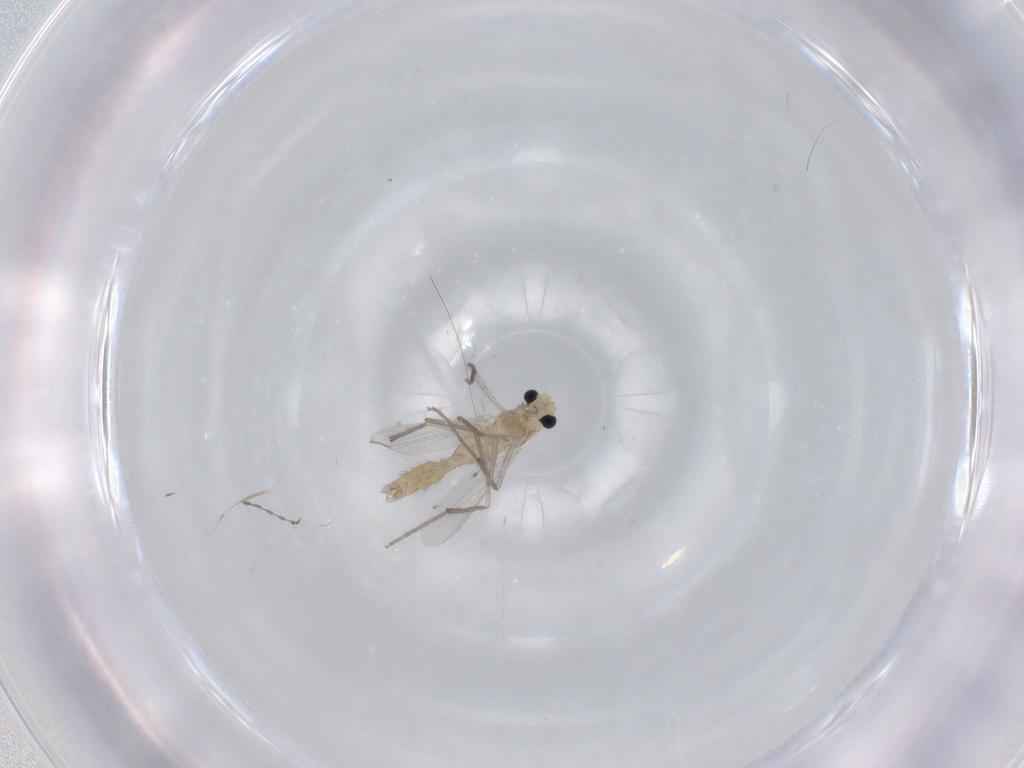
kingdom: Animalia
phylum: Arthropoda
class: Insecta
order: Diptera
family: Chironomidae
